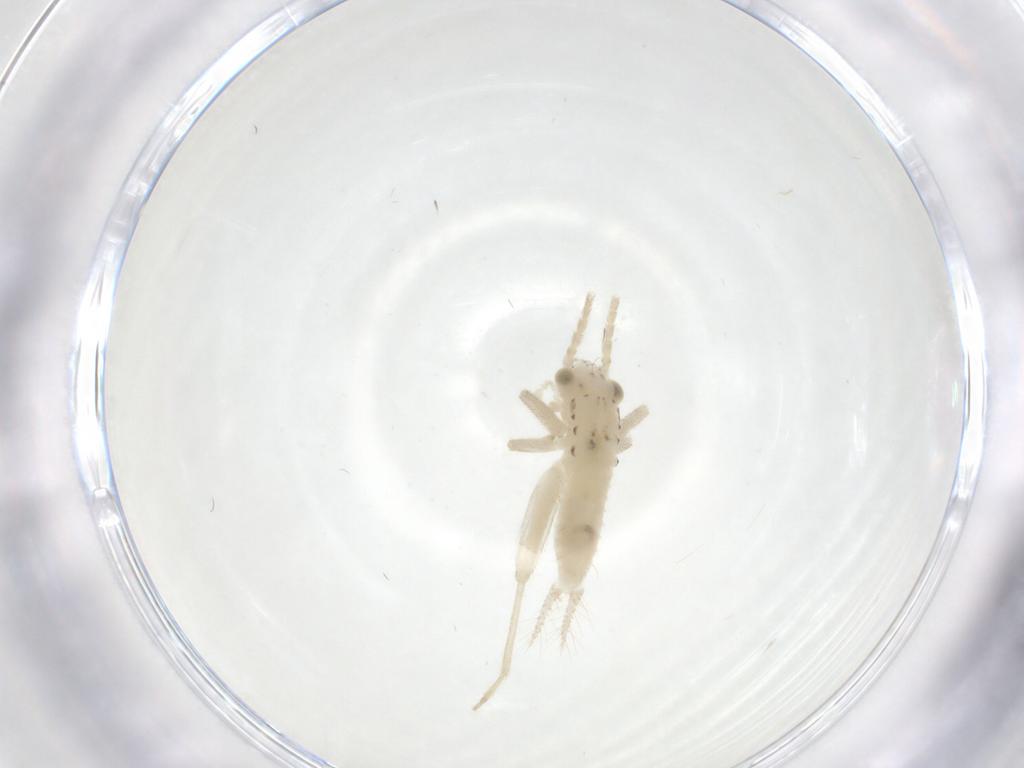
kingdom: Animalia
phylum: Arthropoda
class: Insecta
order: Orthoptera
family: Trigonidiidae
